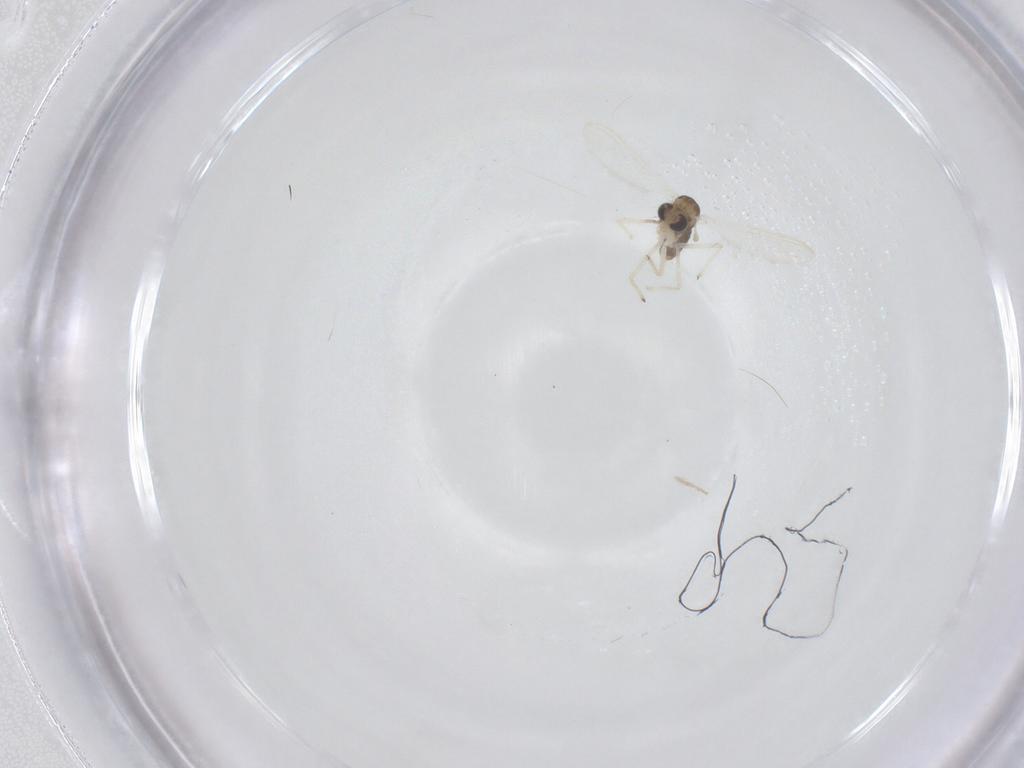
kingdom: Animalia
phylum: Arthropoda
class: Insecta
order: Diptera
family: Chironomidae
